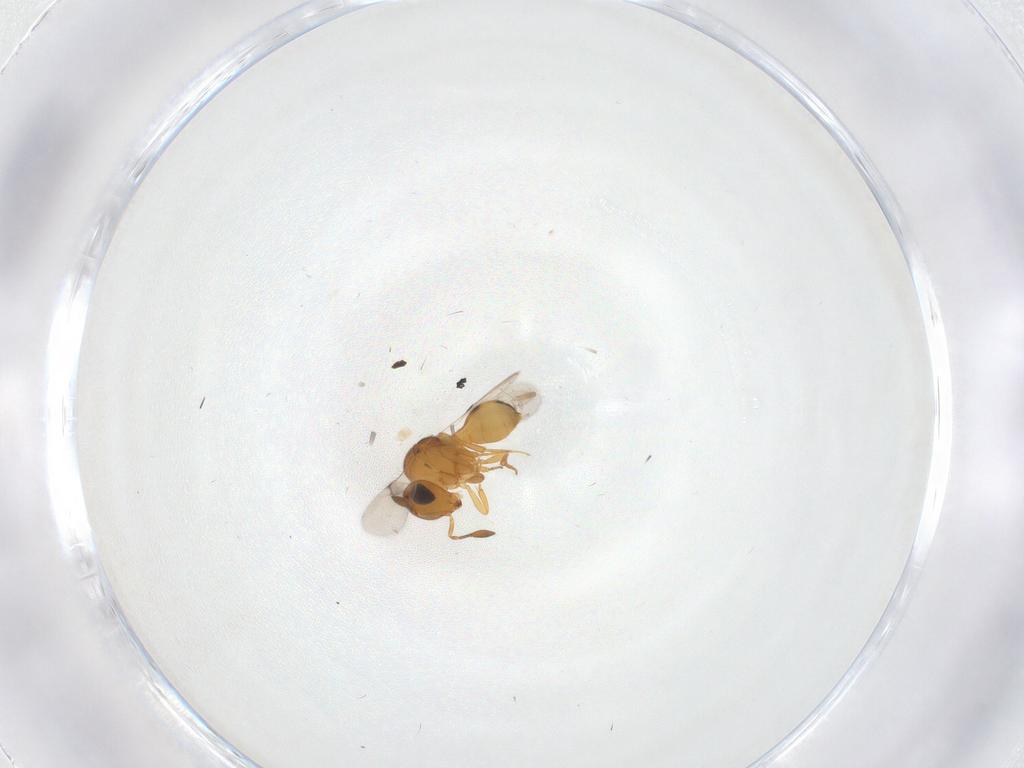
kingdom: Animalia
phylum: Arthropoda
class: Insecta
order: Hymenoptera
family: Scelionidae
